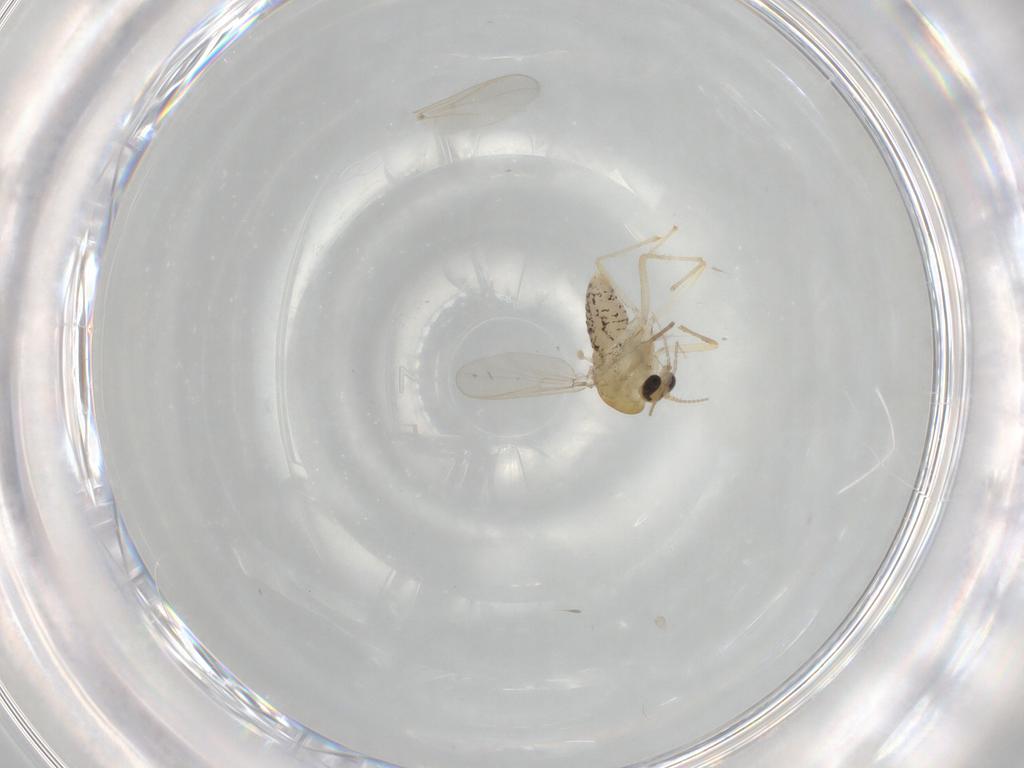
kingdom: Animalia
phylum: Arthropoda
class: Insecta
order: Diptera
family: Chironomidae
